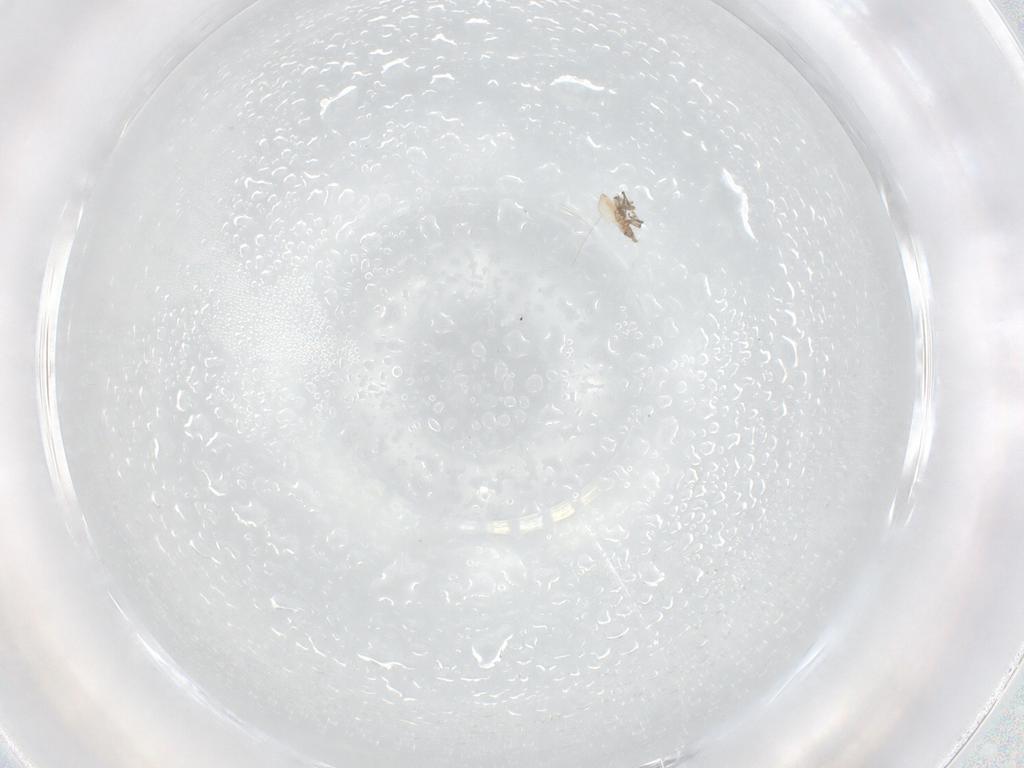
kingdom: Animalia
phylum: Arthropoda
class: Insecta
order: Hemiptera
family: Aphididae
